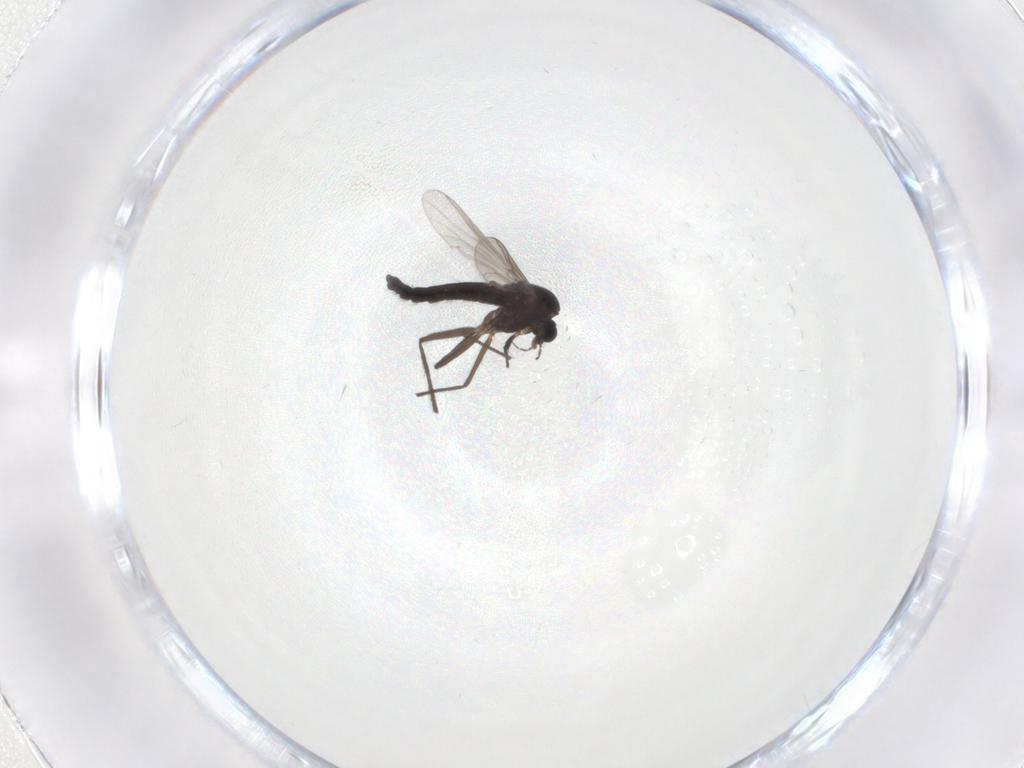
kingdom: Animalia
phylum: Arthropoda
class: Insecta
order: Diptera
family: Chironomidae
